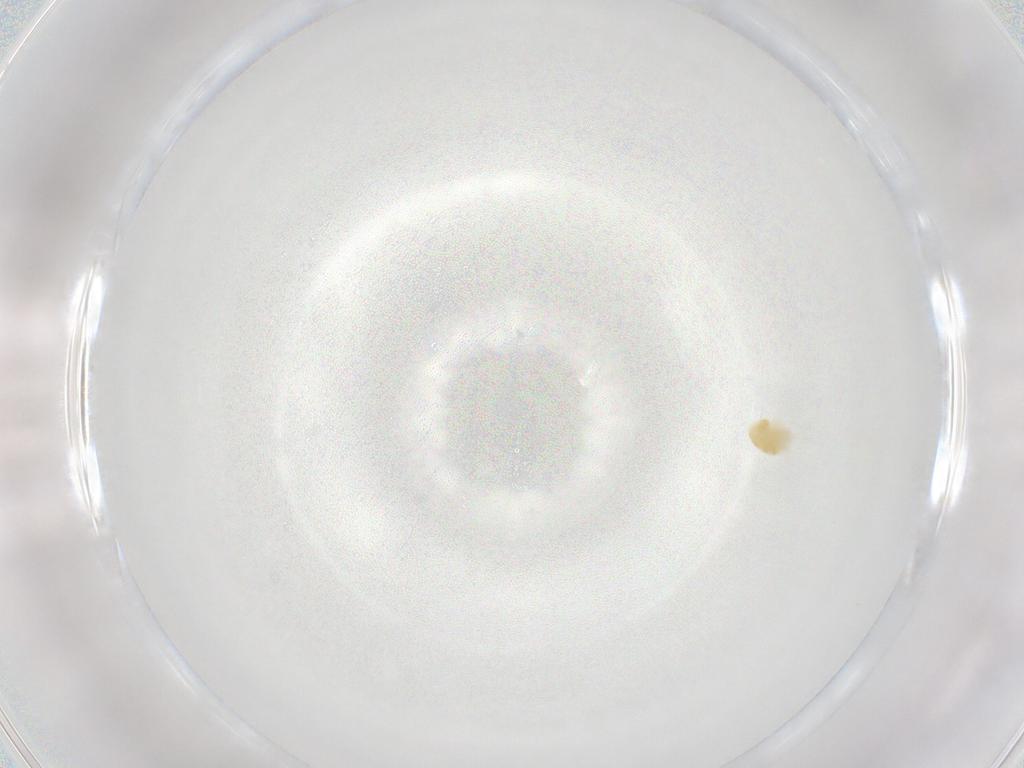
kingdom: Animalia
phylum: Arthropoda
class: Arachnida
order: Trombidiformes
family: Eupodidae
